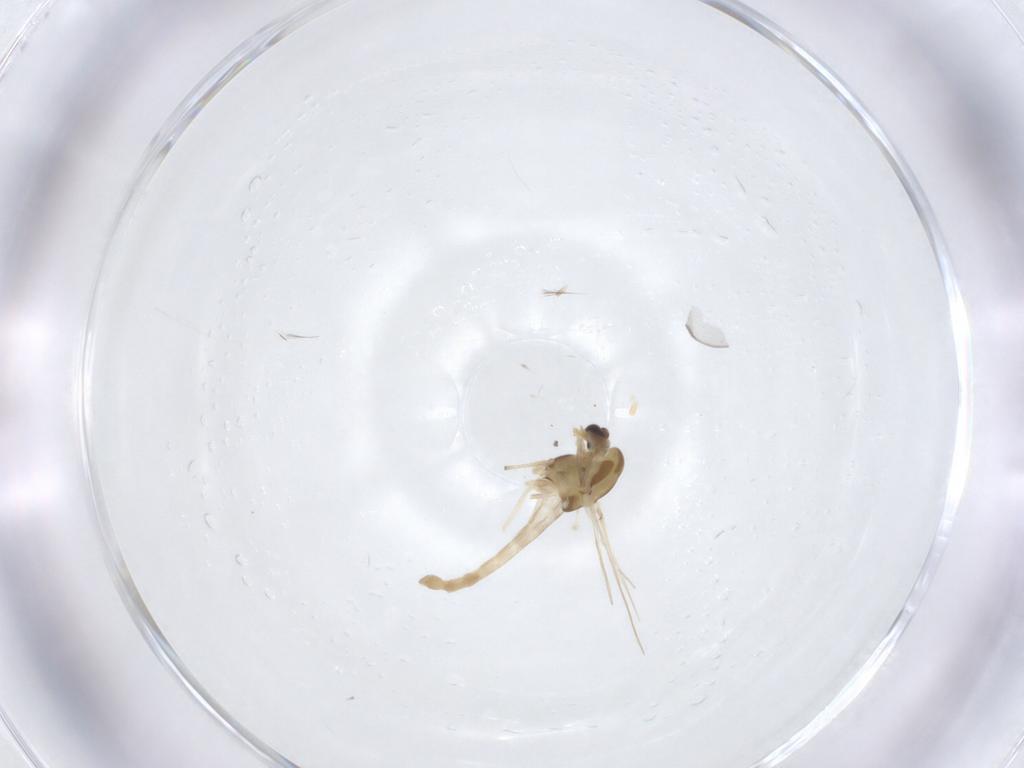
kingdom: Animalia
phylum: Arthropoda
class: Insecta
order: Diptera
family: Chironomidae
